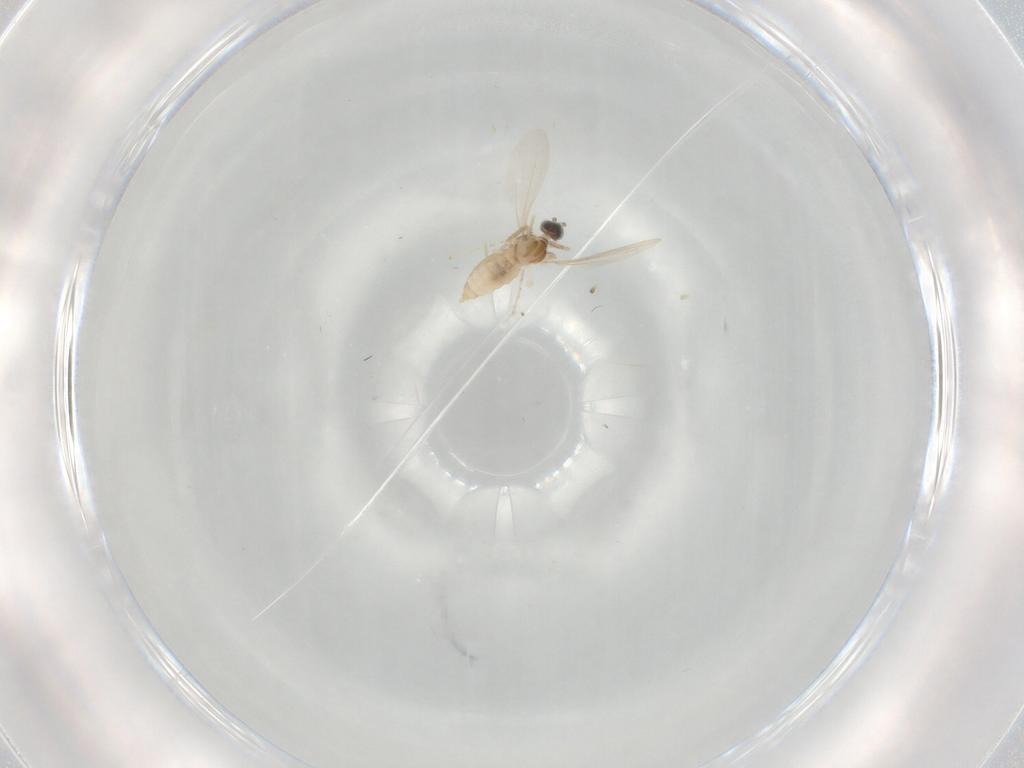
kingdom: Animalia
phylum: Arthropoda
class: Insecta
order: Diptera
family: Cecidomyiidae
